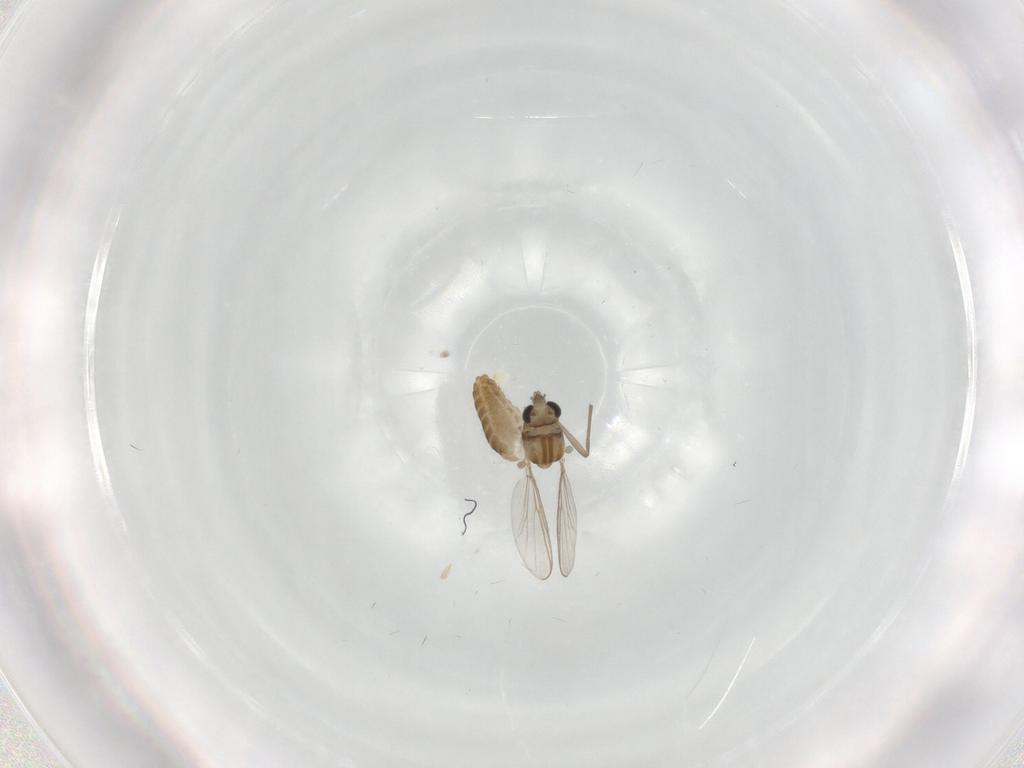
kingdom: Animalia
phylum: Arthropoda
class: Insecta
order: Diptera
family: Chironomidae
